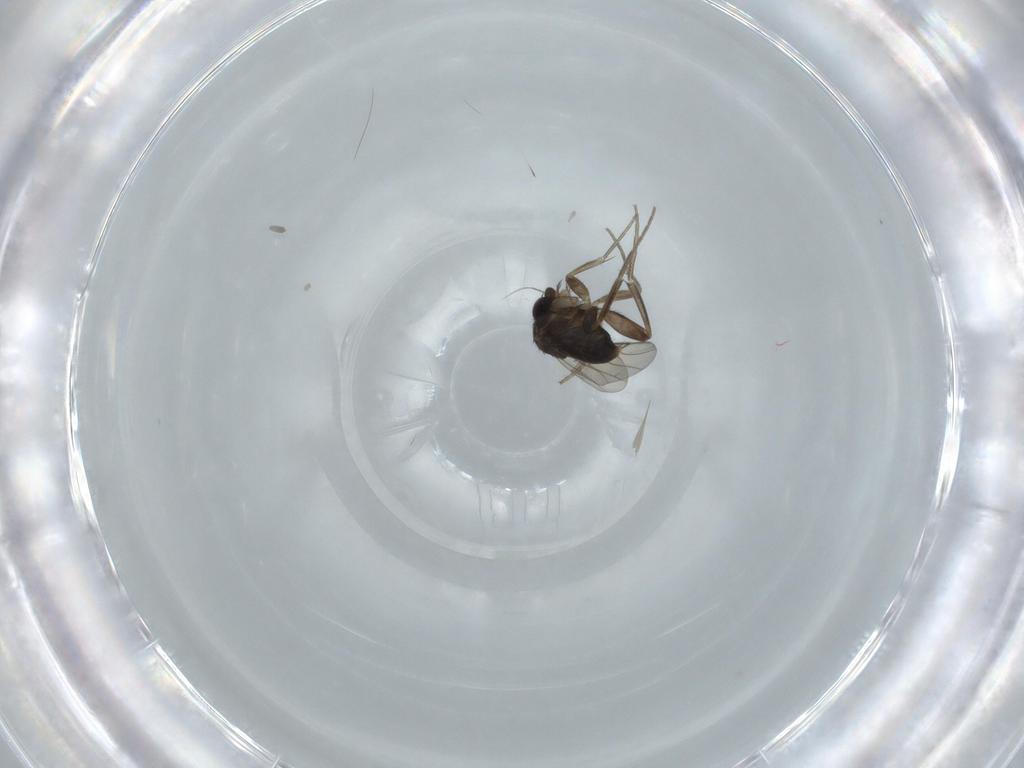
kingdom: Animalia
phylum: Arthropoda
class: Insecta
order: Diptera
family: Phoridae
